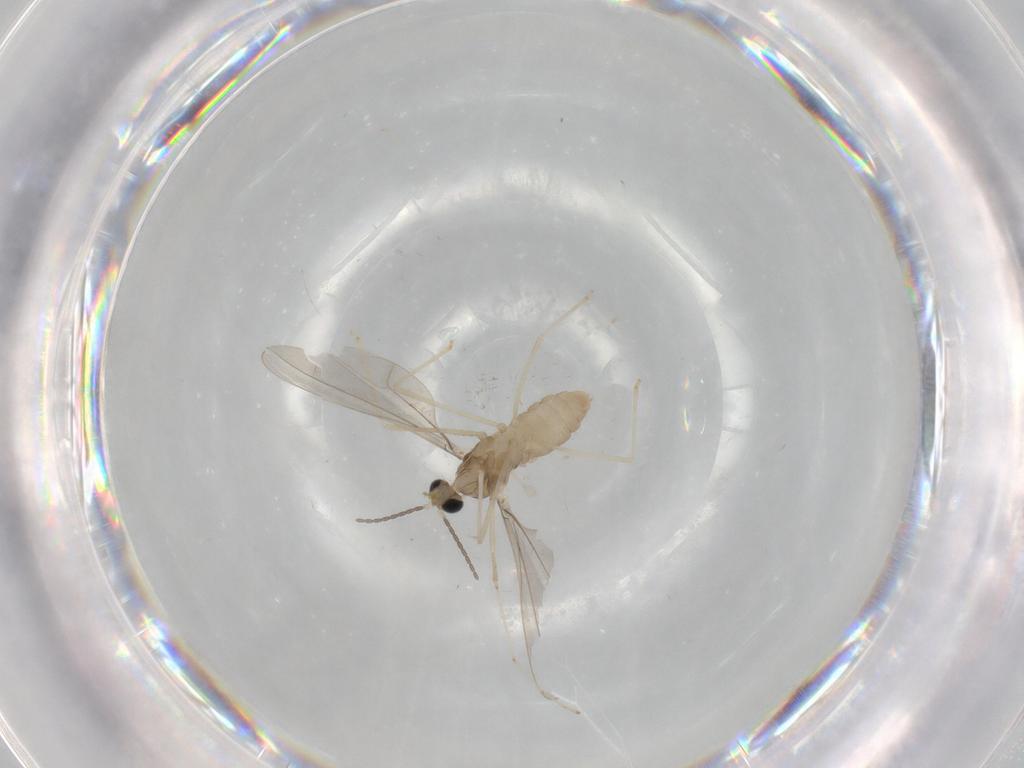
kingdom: Animalia
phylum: Arthropoda
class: Insecta
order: Diptera
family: Cecidomyiidae
